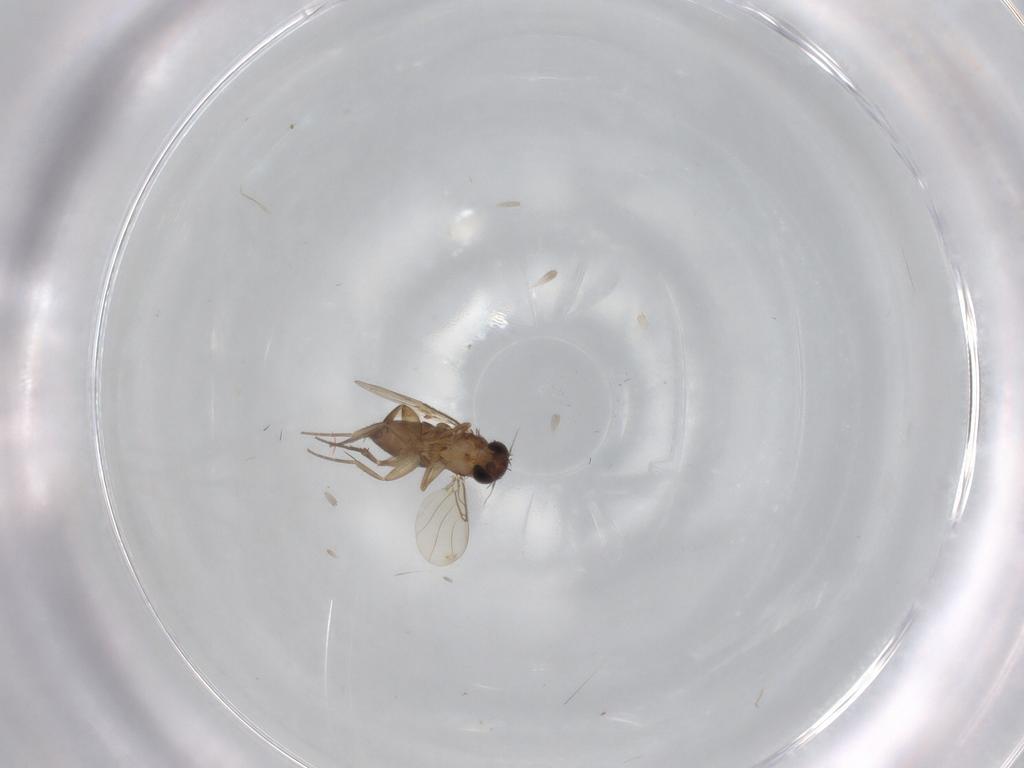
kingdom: Animalia
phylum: Arthropoda
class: Insecta
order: Diptera
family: Phoridae
